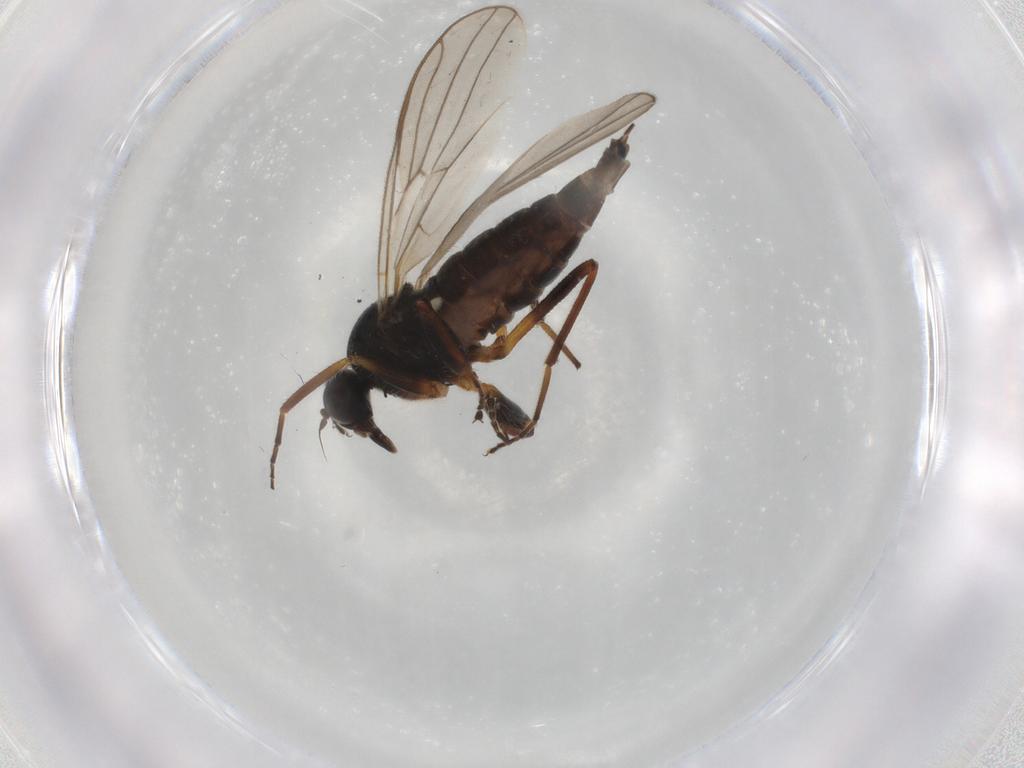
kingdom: Animalia
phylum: Arthropoda
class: Insecta
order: Diptera
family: Hybotidae
